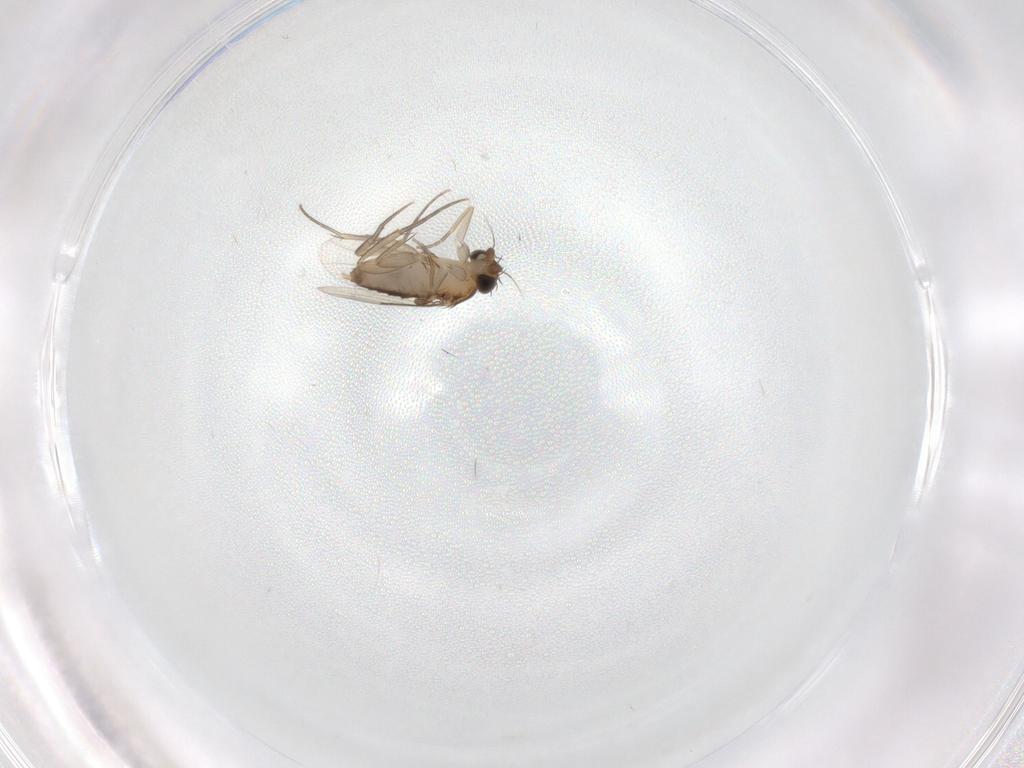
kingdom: Animalia
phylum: Arthropoda
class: Insecta
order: Diptera
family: Phoridae
